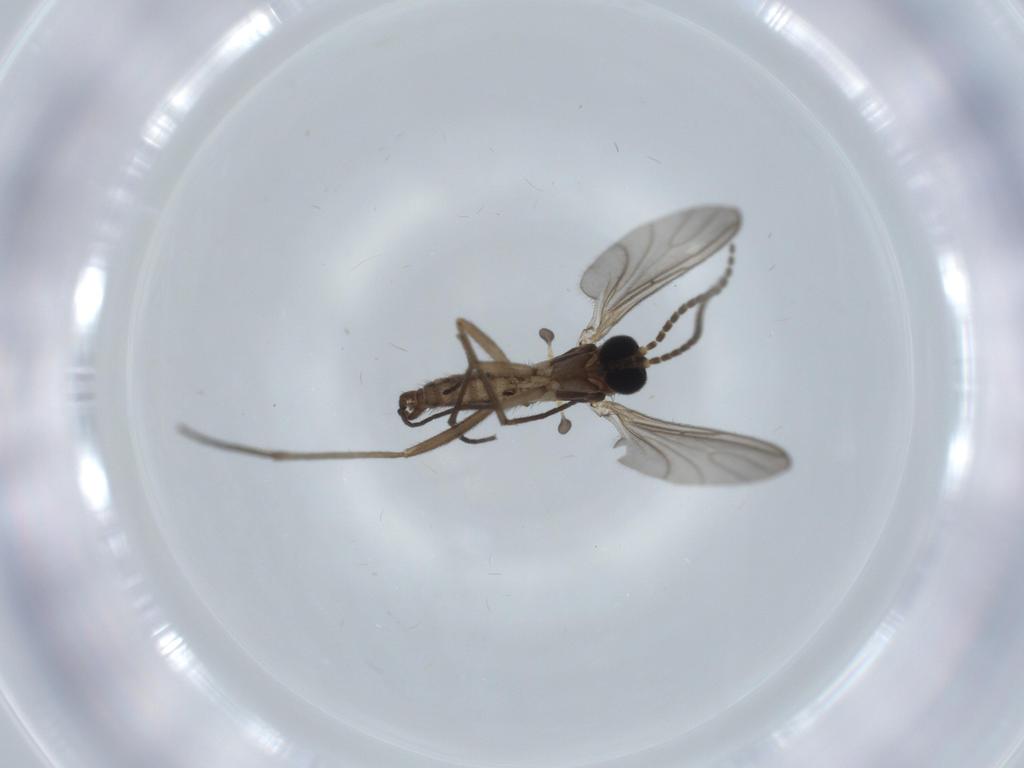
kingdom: Animalia
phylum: Arthropoda
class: Insecta
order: Diptera
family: Sciaridae
